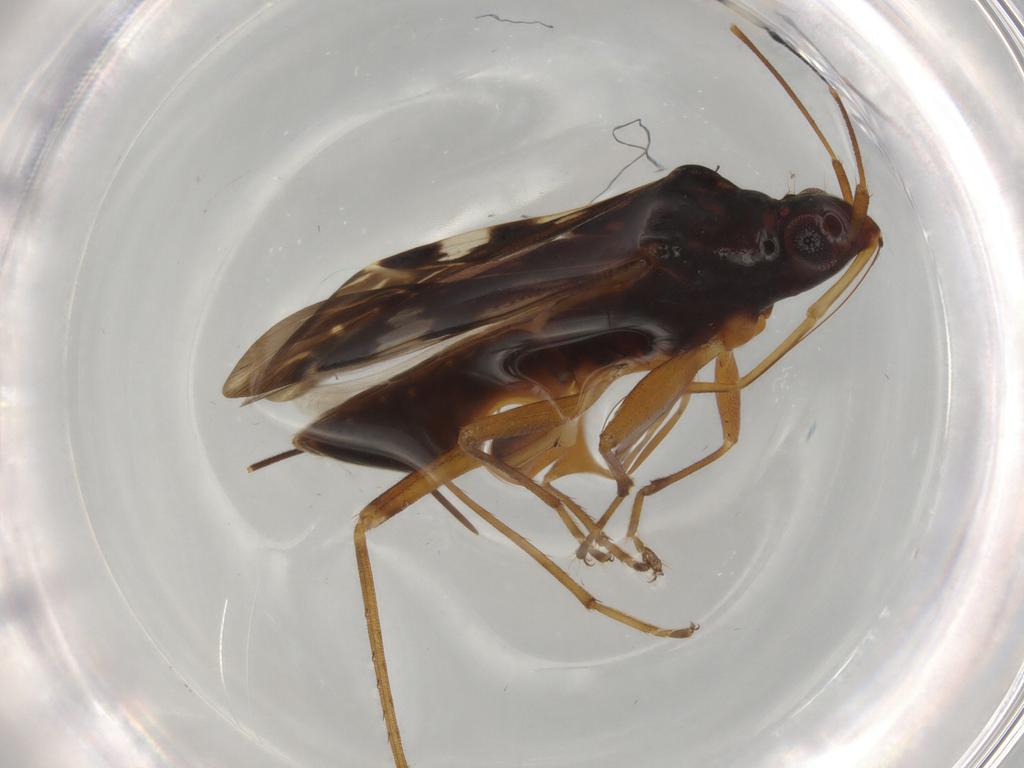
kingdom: Animalia
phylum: Arthropoda
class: Insecta
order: Hemiptera
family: Rhyparochromidae
